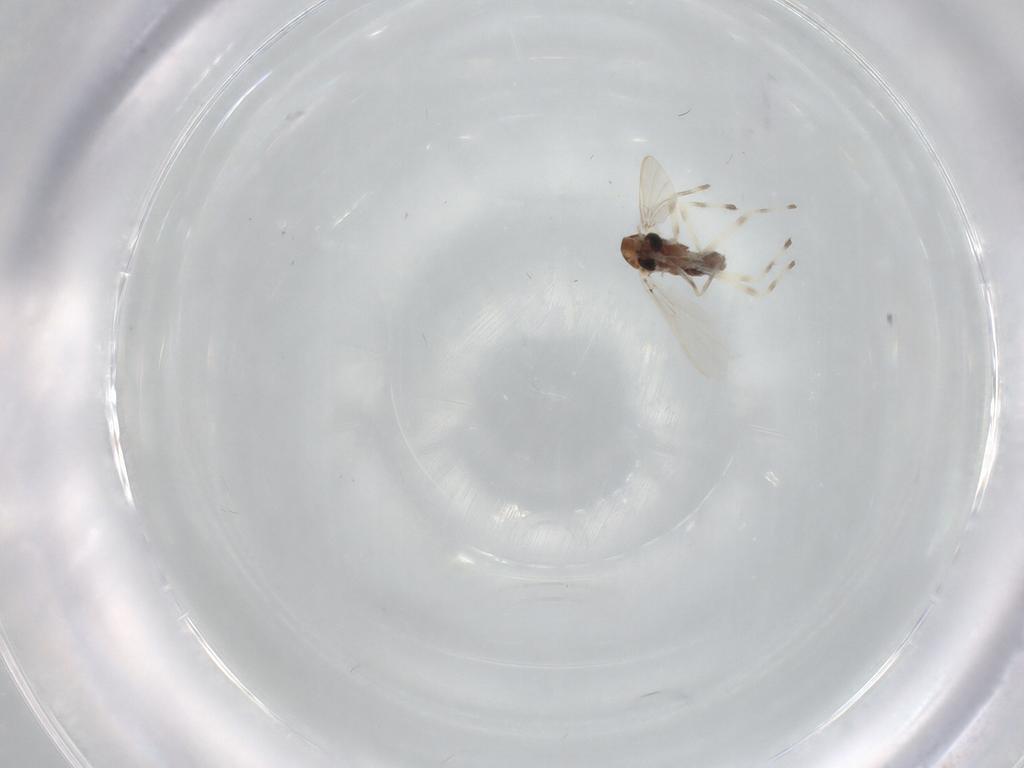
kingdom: Animalia
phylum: Arthropoda
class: Insecta
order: Diptera
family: Chironomidae
